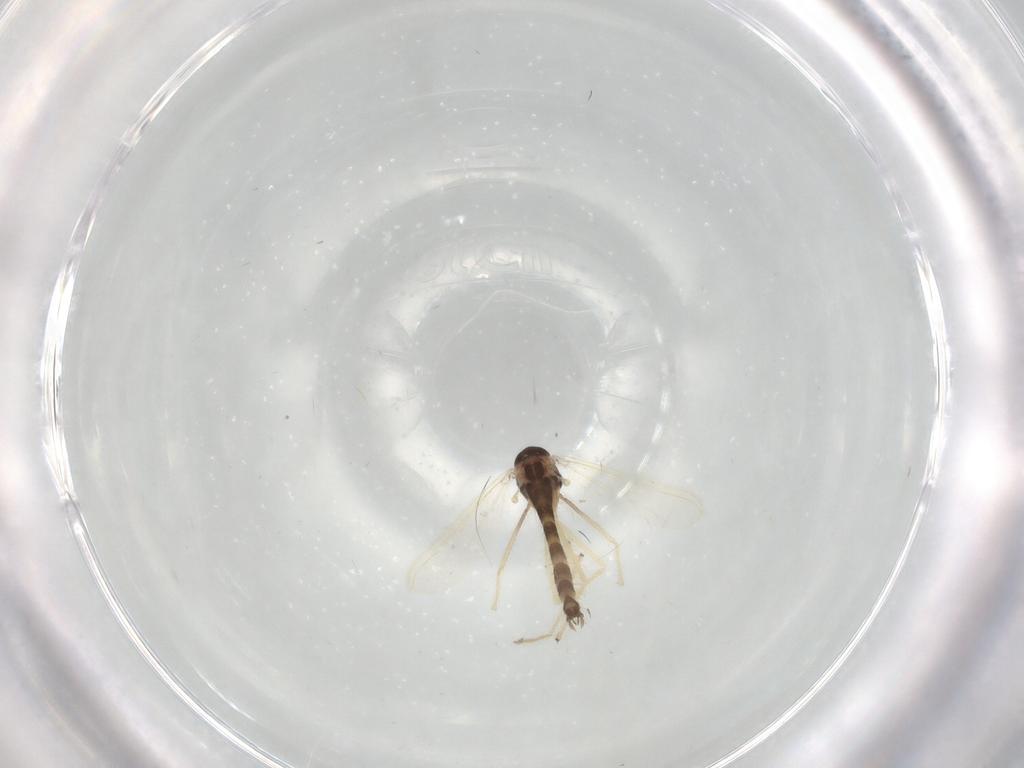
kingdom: Animalia
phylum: Arthropoda
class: Insecta
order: Diptera
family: Chironomidae
